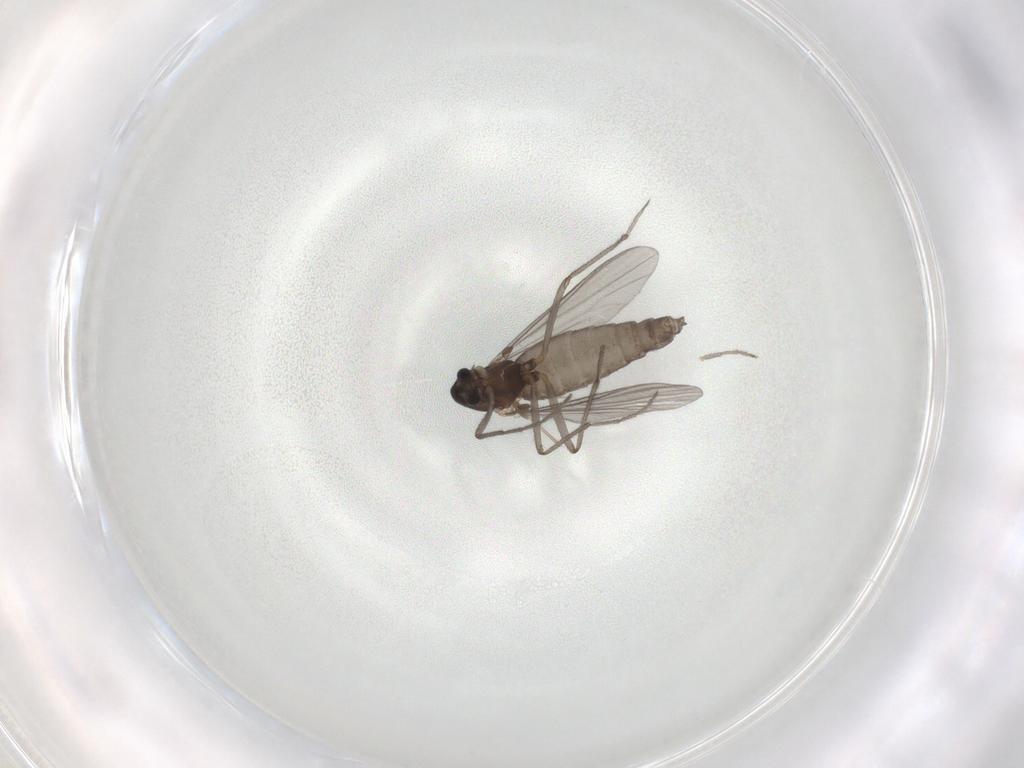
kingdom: Animalia
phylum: Arthropoda
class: Insecta
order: Diptera
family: Chironomidae
